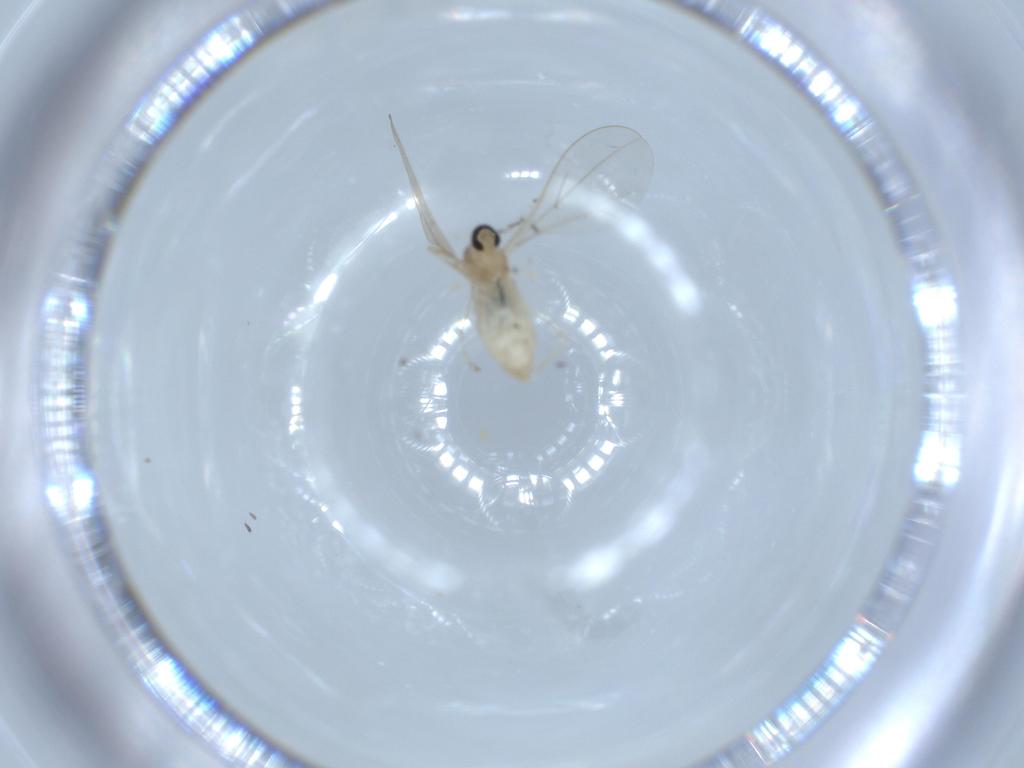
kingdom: Animalia
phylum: Arthropoda
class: Insecta
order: Diptera
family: Cecidomyiidae
